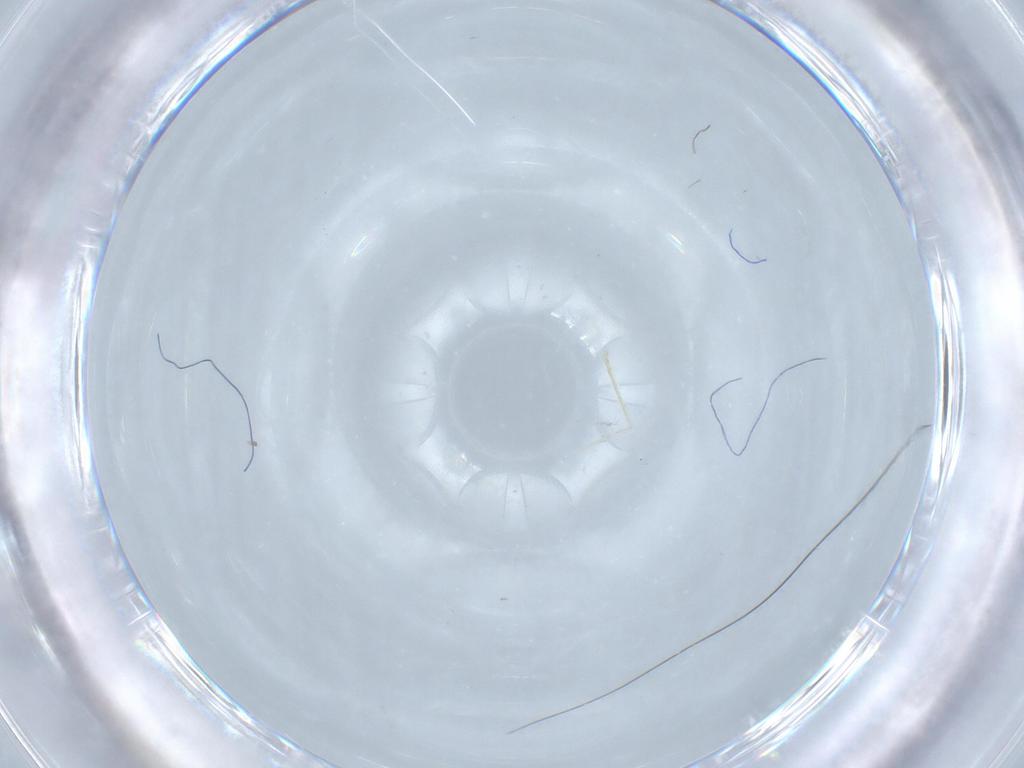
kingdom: Animalia
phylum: Arthropoda
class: Insecta
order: Diptera
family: Cecidomyiidae
